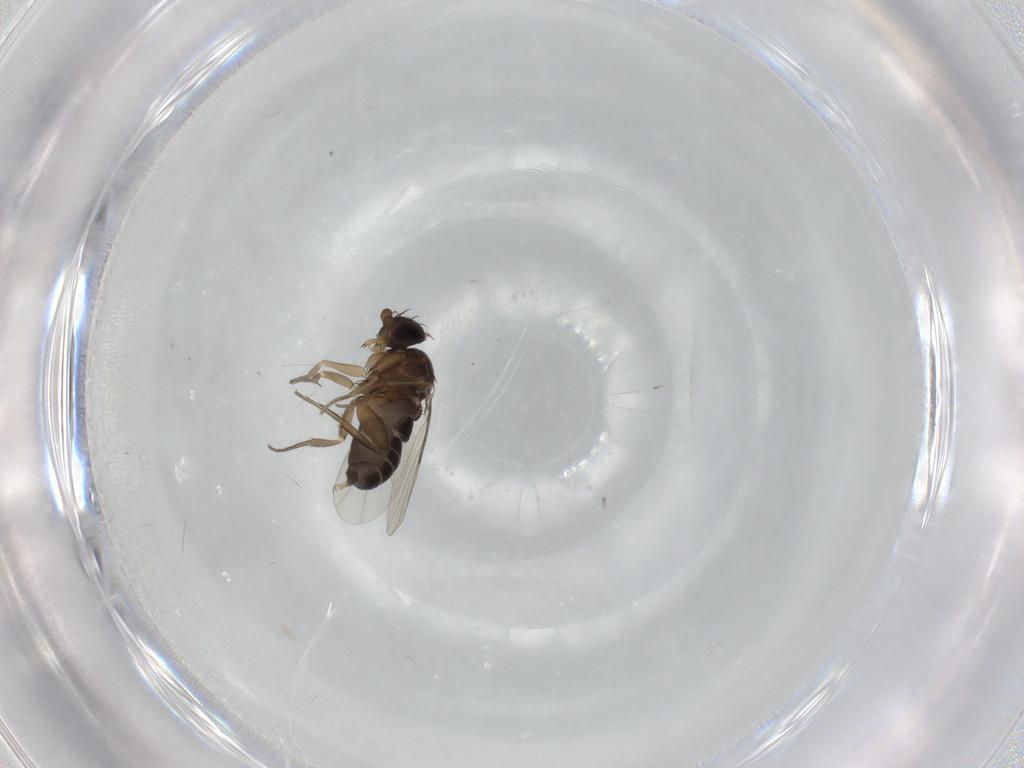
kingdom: Animalia
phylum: Arthropoda
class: Insecta
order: Diptera
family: Phoridae
